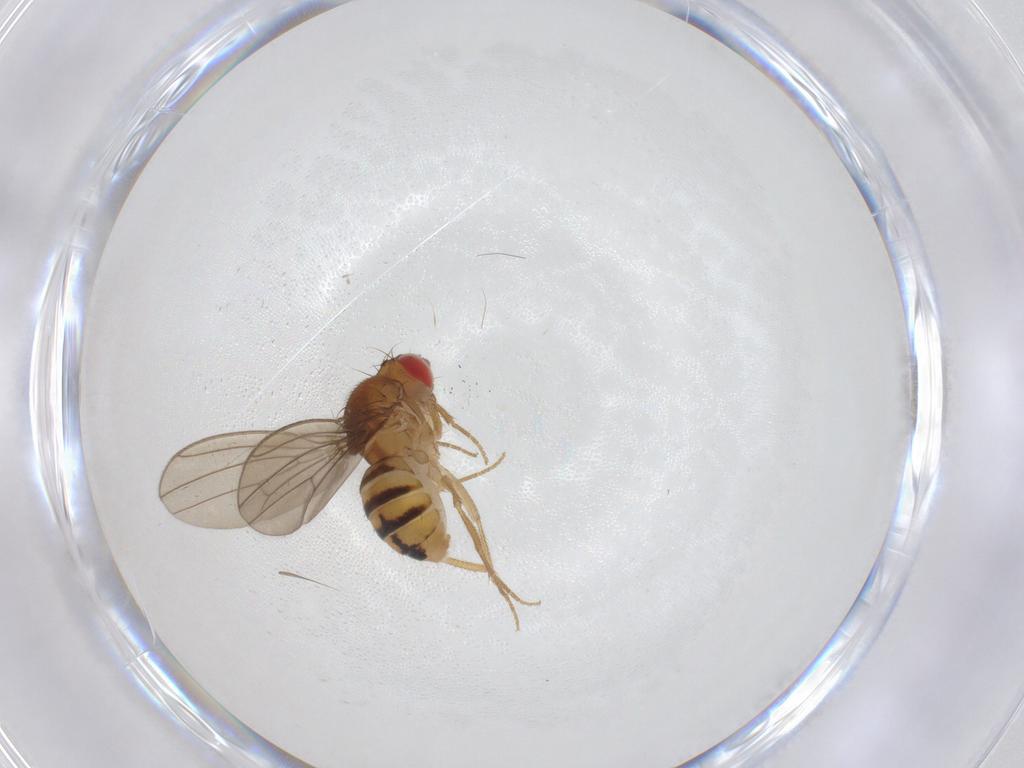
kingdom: Animalia
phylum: Arthropoda
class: Insecta
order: Diptera
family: Drosophilidae
